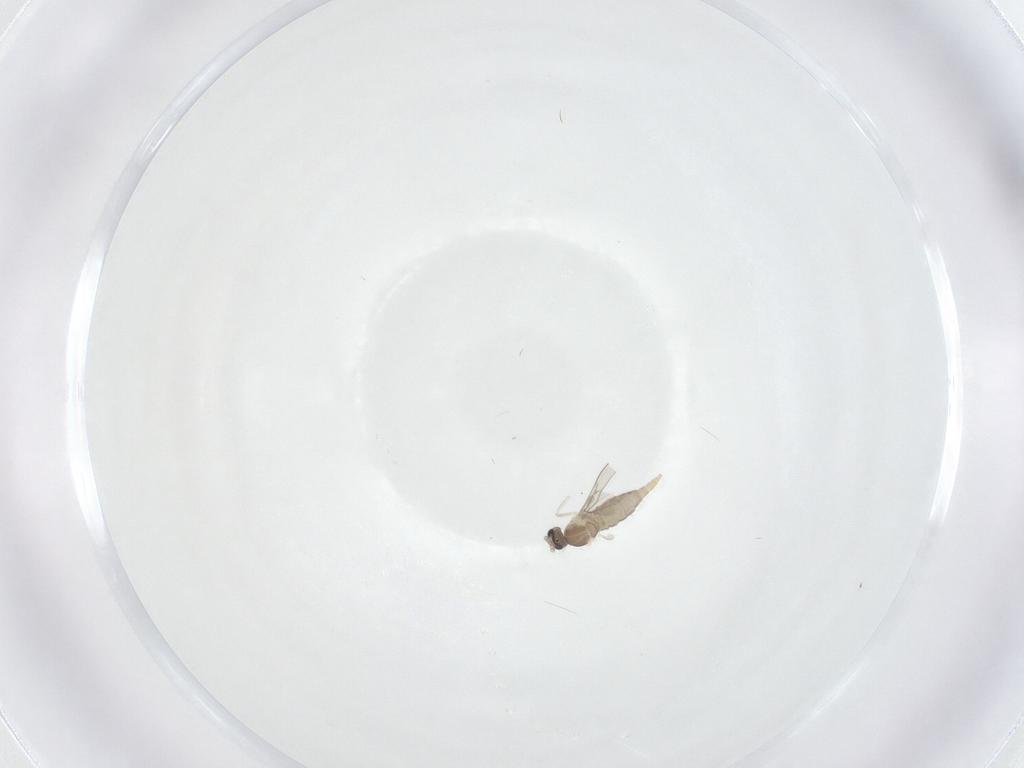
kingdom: Animalia
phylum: Arthropoda
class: Insecta
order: Diptera
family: Cecidomyiidae
